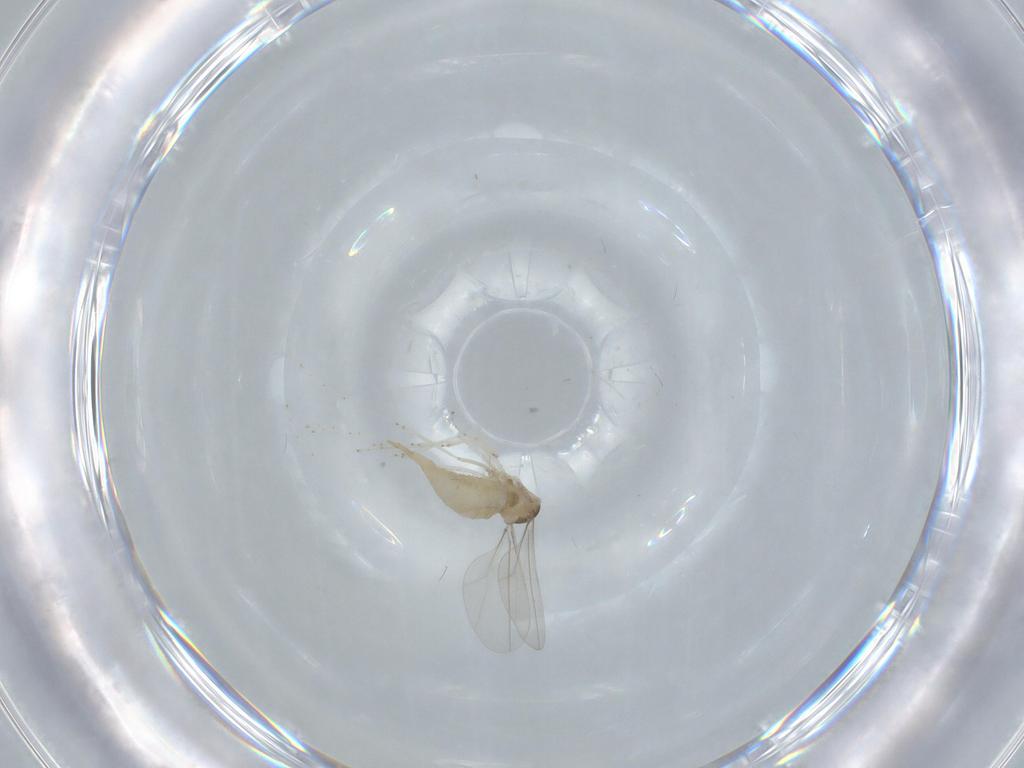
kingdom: Animalia
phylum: Arthropoda
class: Insecta
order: Diptera
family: Cecidomyiidae
